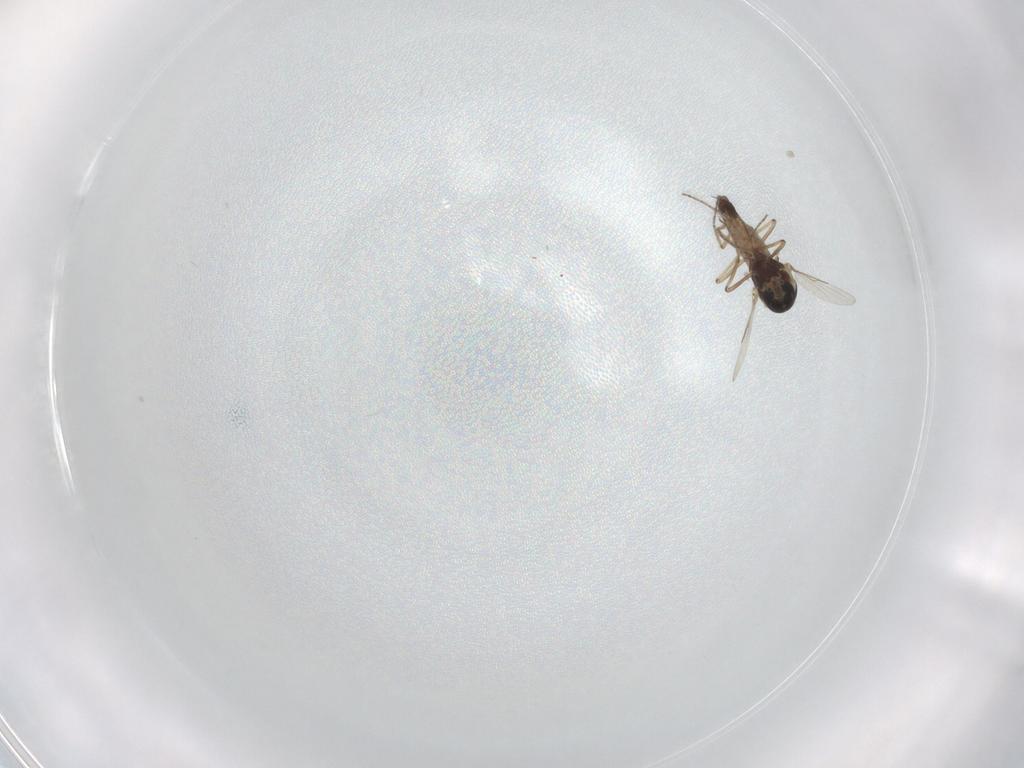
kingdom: Animalia
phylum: Arthropoda
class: Insecta
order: Diptera
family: Ceratopogonidae
